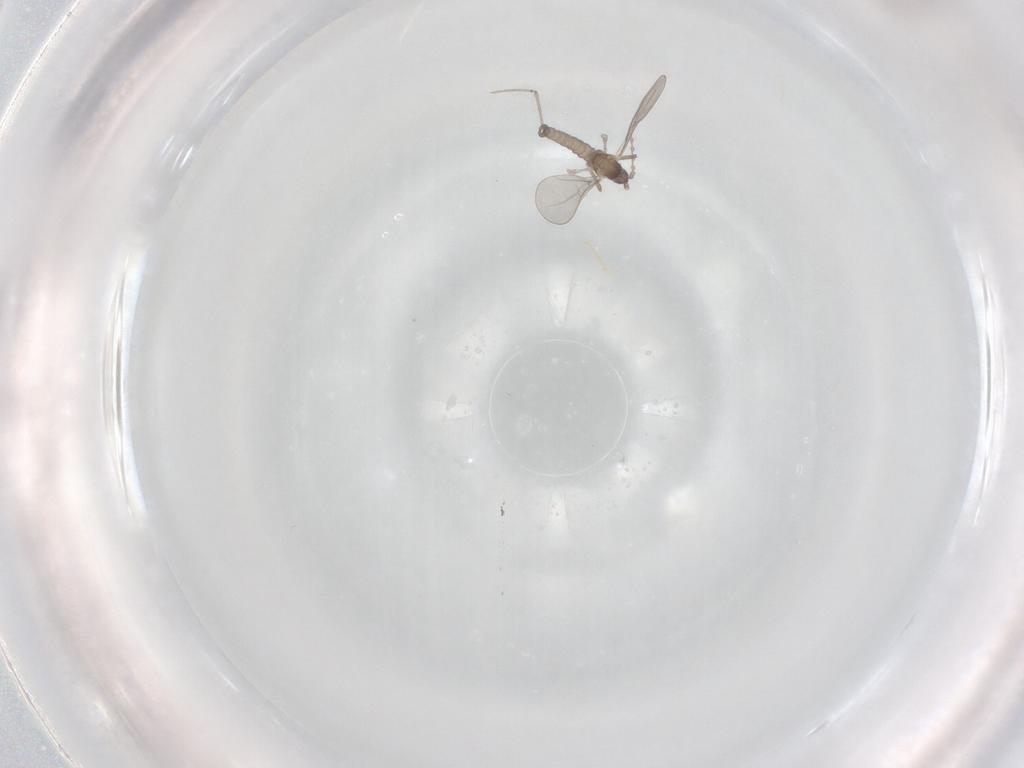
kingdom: Animalia
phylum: Arthropoda
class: Insecta
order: Diptera
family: Cecidomyiidae
